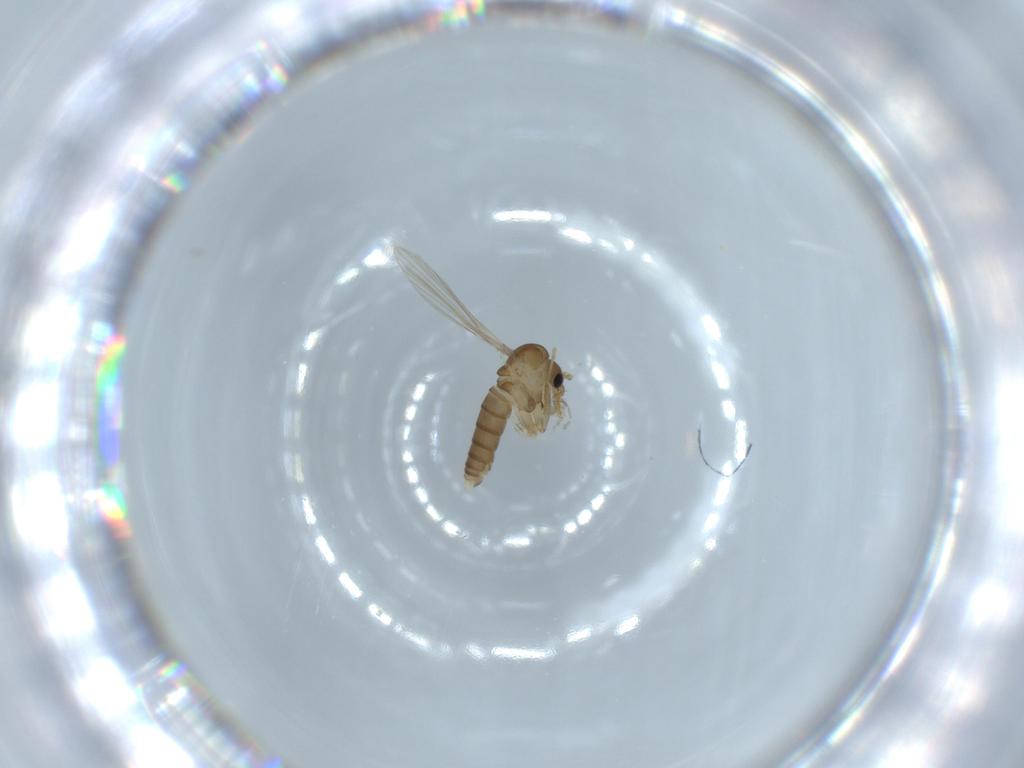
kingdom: Animalia
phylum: Arthropoda
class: Insecta
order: Diptera
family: Psychodidae
